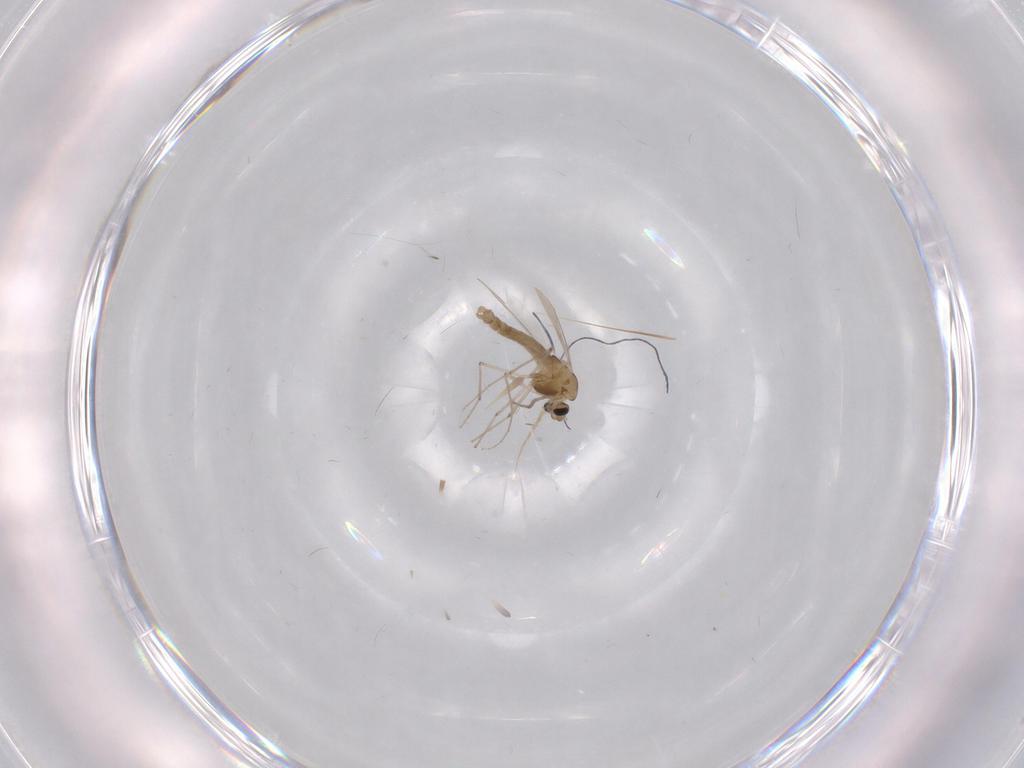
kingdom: Animalia
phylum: Arthropoda
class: Insecta
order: Diptera
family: Chironomidae
